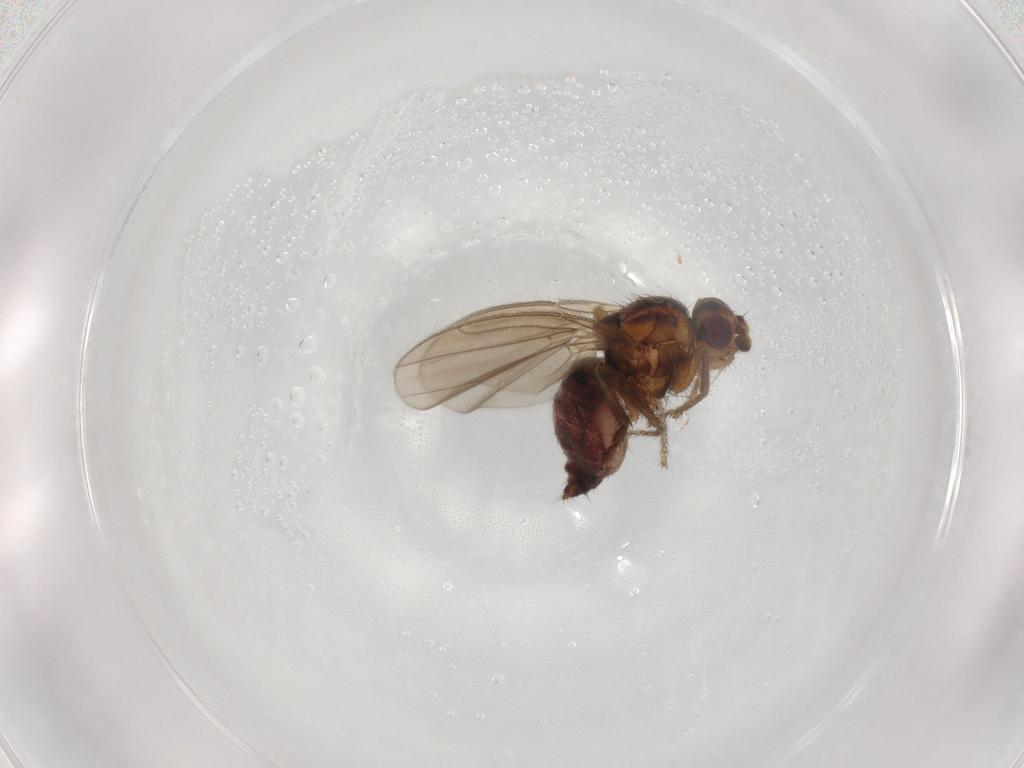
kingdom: Animalia
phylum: Arthropoda
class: Insecta
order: Diptera
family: Sphaeroceridae
